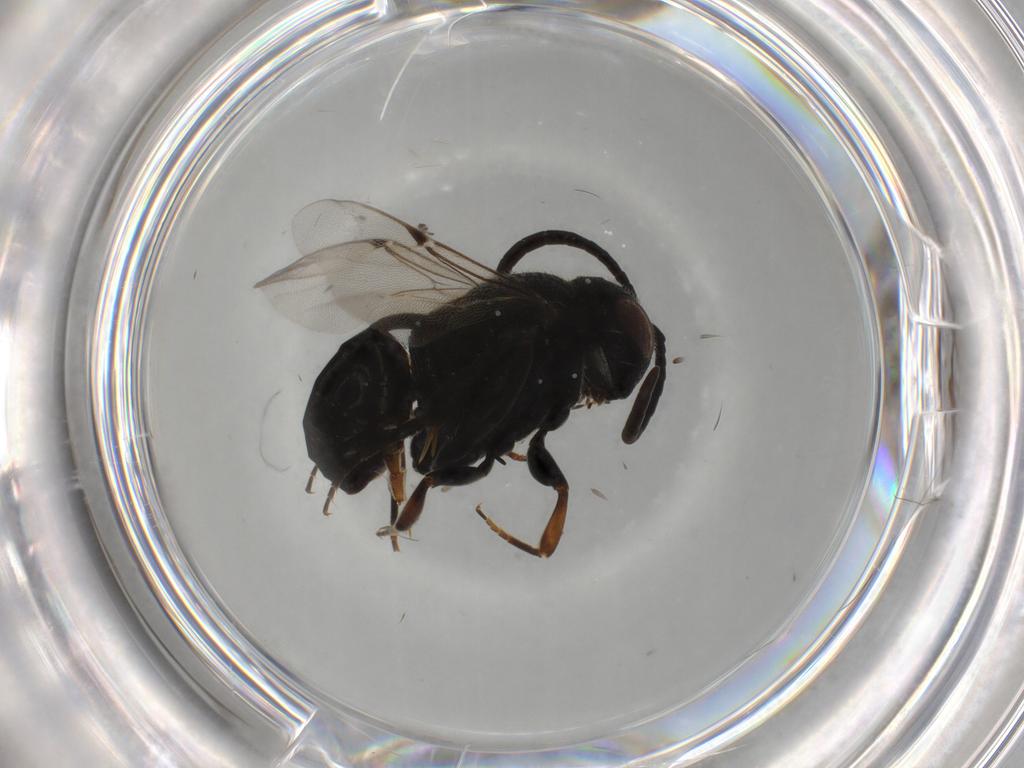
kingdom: Animalia
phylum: Arthropoda
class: Insecta
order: Hymenoptera
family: Ichneumonidae
